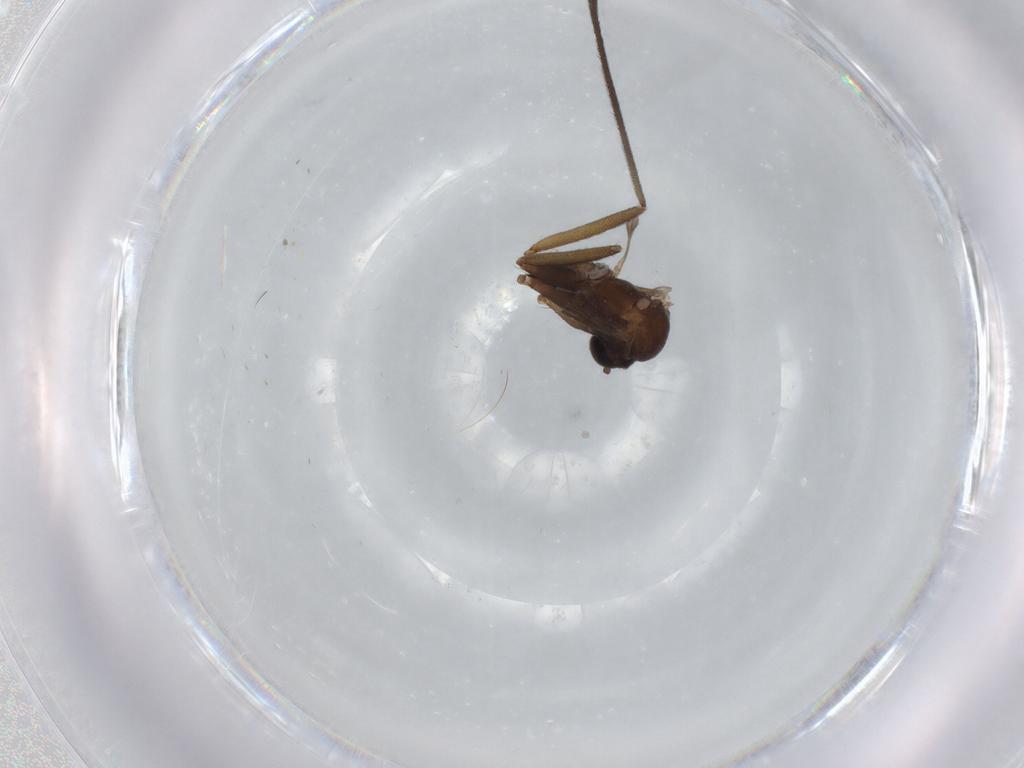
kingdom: Animalia
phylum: Arthropoda
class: Insecta
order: Diptera
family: Keroplatidae
